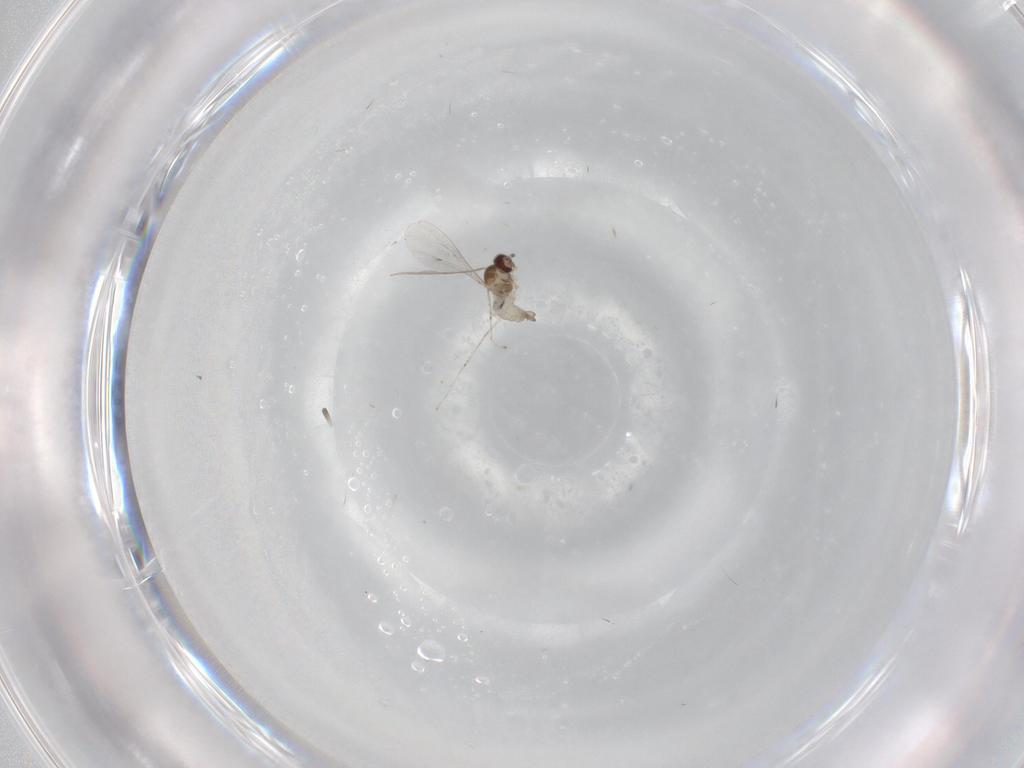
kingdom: Animalia
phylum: Arthropoda
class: Insecta
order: Diptera
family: Cecidomyiidae
